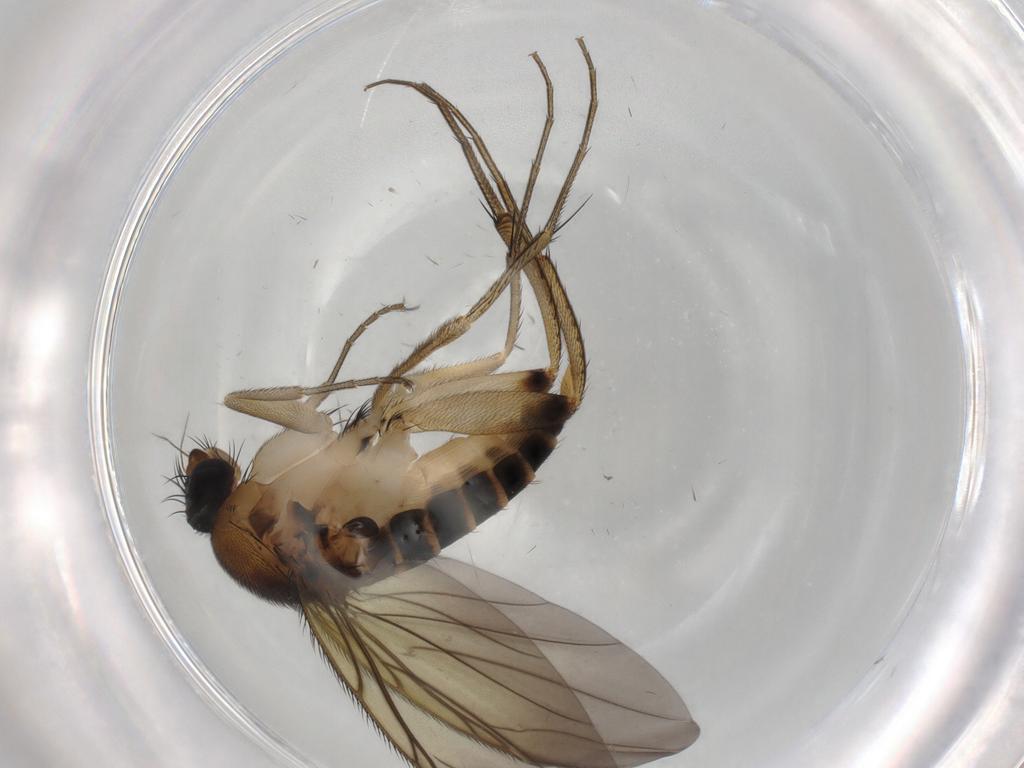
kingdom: Animalia
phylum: Arthropoda
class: Insecta
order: Diptera
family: Phoridae
